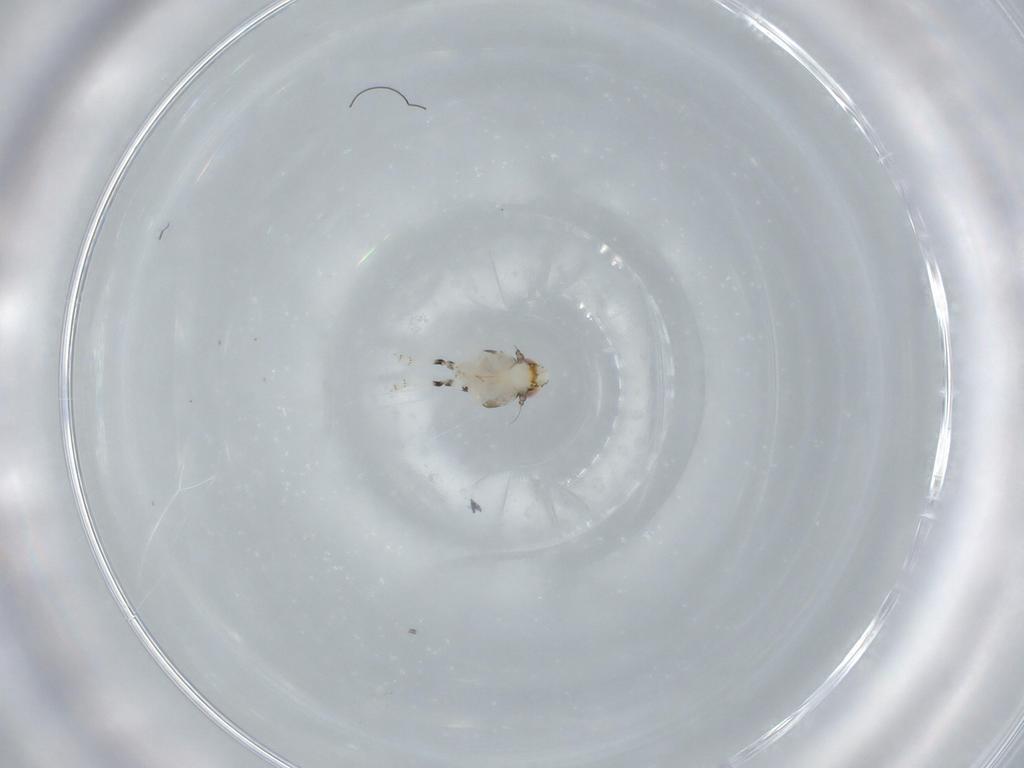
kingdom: Animalia
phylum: Arthropoda
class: Insecta
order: Hemiptera
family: Nogodinidae
